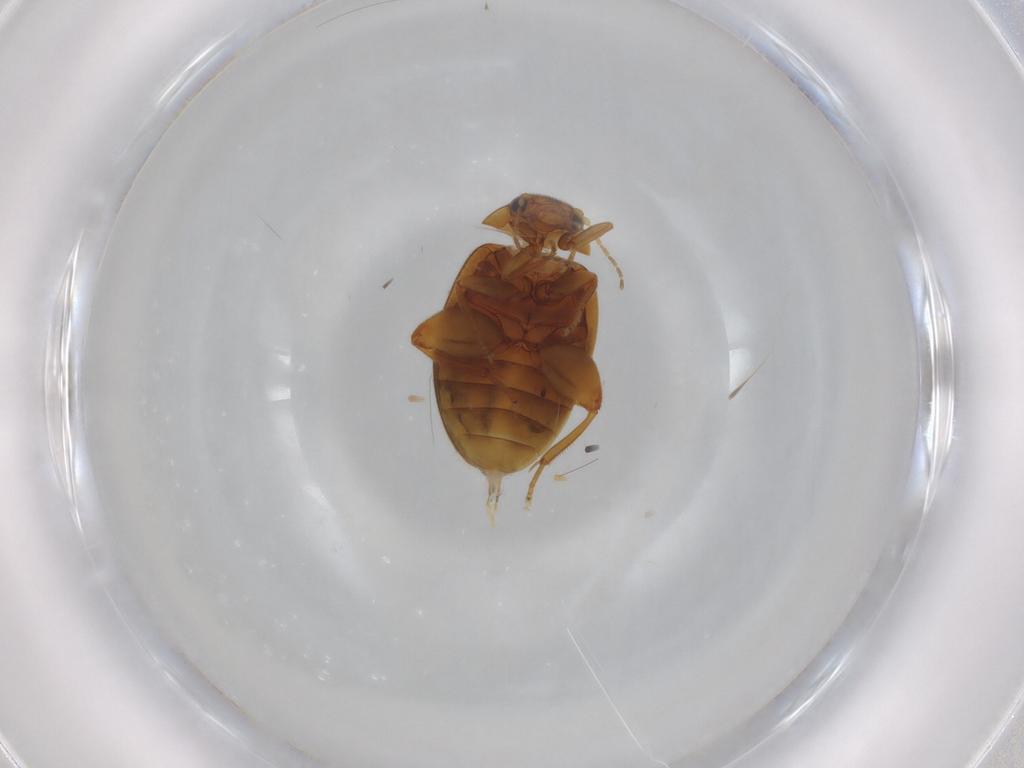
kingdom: Animalia
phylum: Arthropoda
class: Insecta
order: Coleoptera
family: Scirtidae
